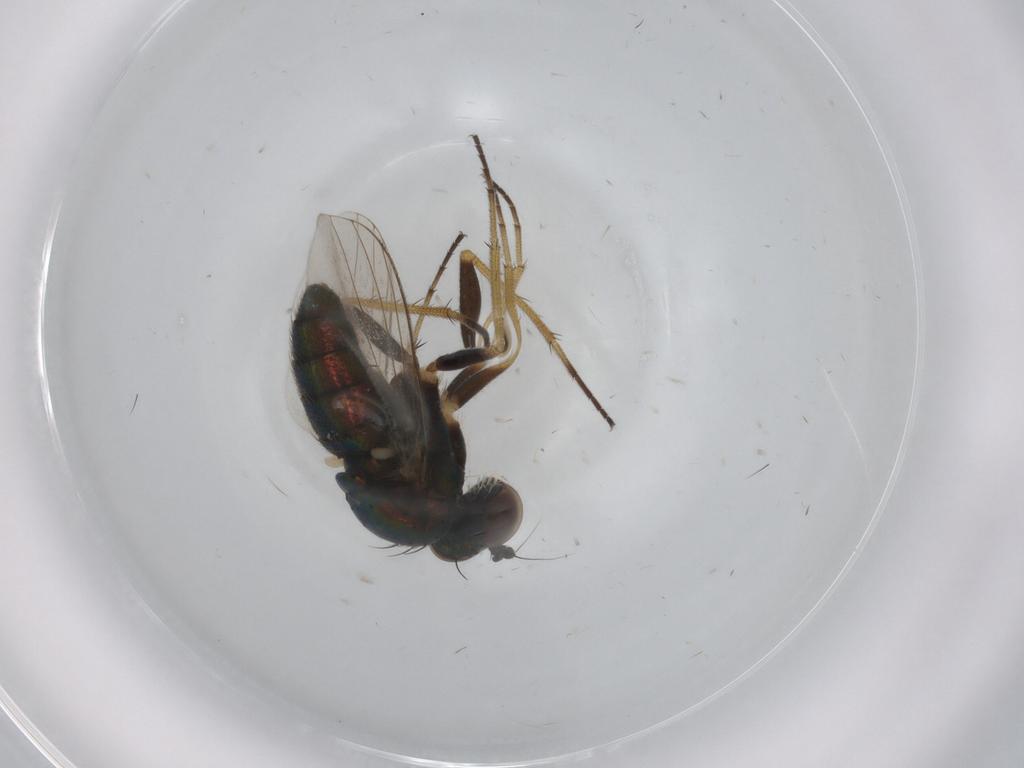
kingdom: Animalia
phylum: Arthropoda
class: Insecta
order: Diptera
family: Ephydridae
